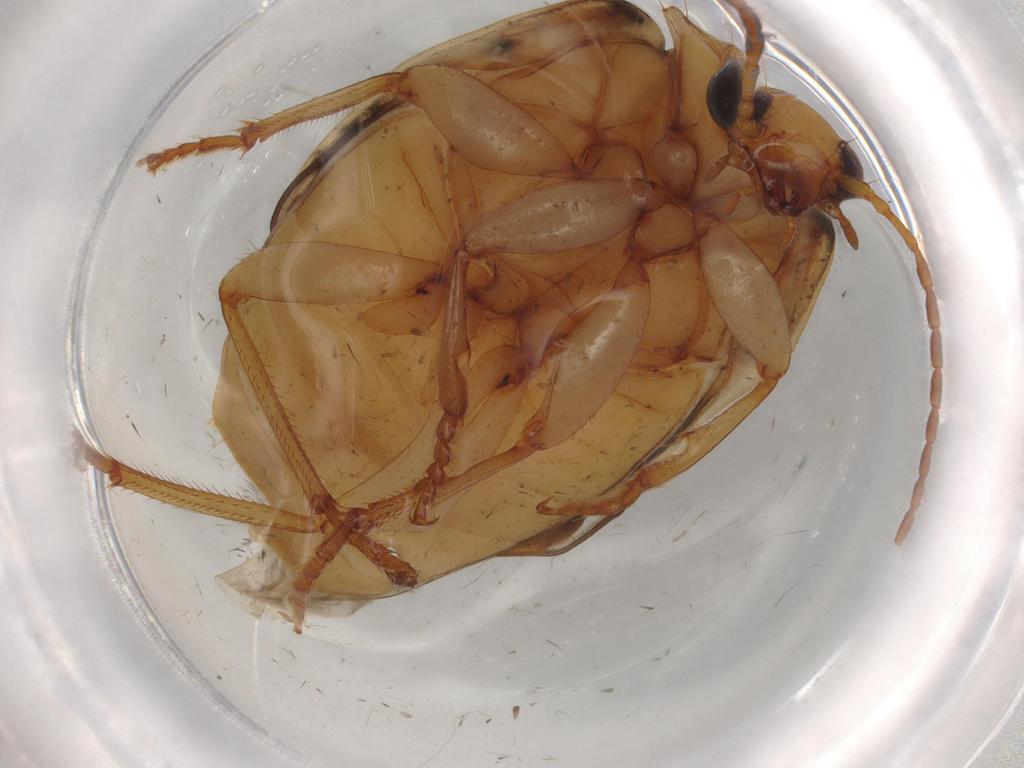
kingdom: Animalia
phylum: Arthropoda
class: Insecta
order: Coleoptera
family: Carabidae
